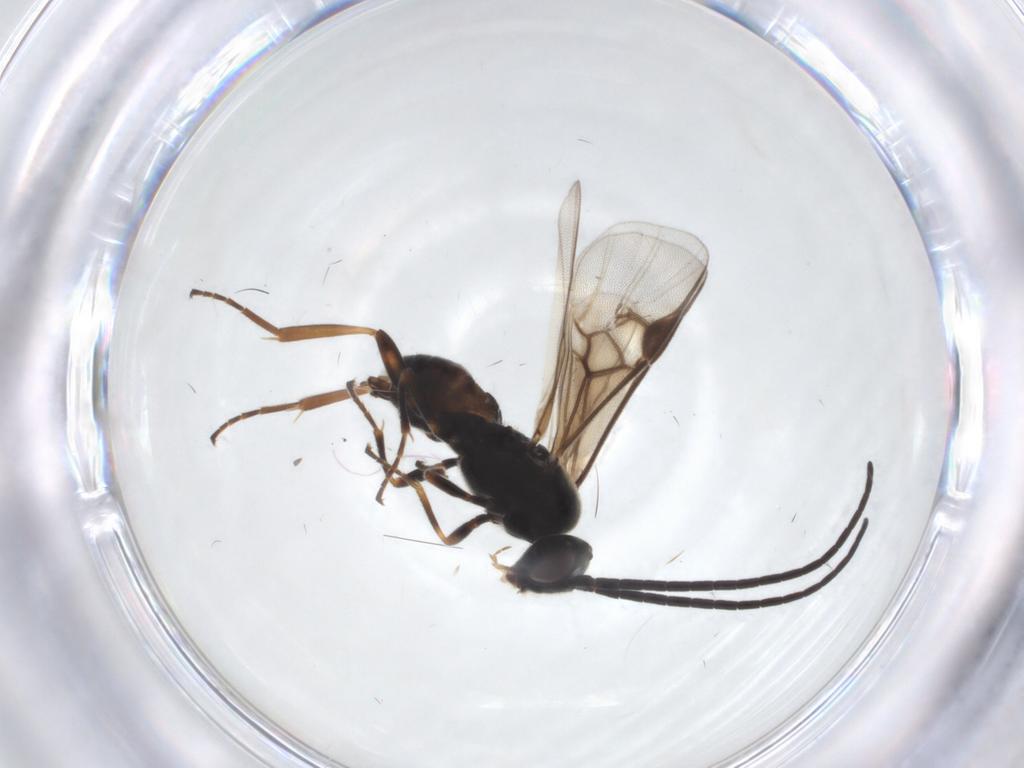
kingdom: Animalia
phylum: Arthropoda
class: Insecta
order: Hymenoptera
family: Braconidae
